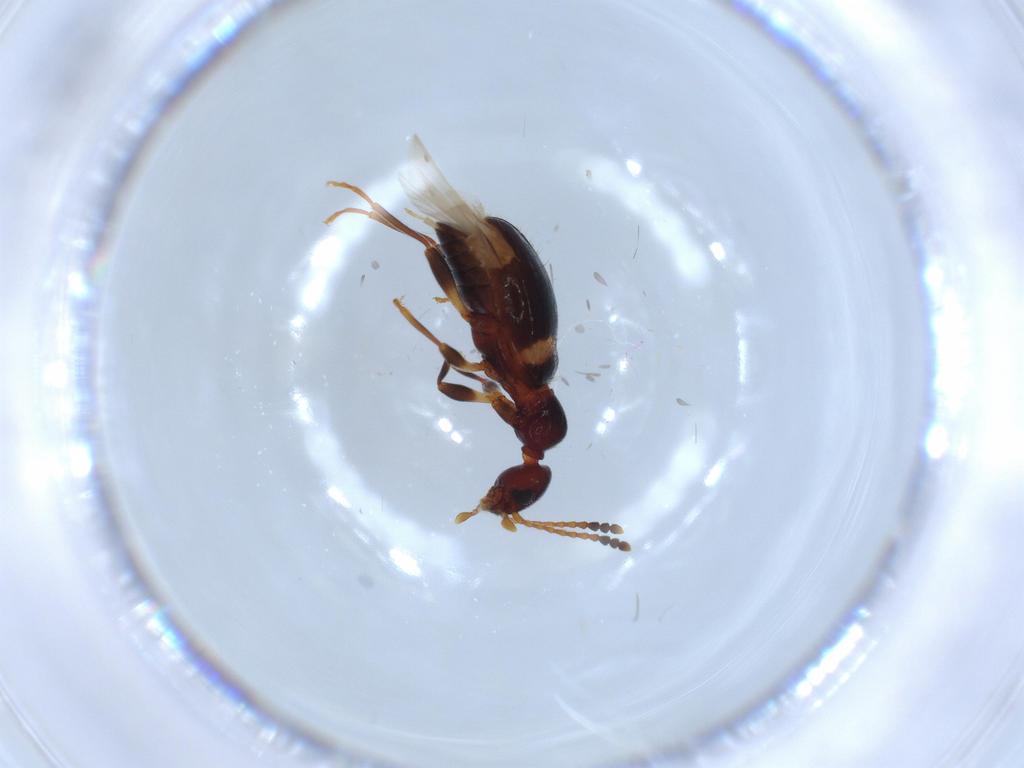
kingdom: Animalia
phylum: Arthropoda
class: Insecta
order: Coleoptera
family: Anthicidae
